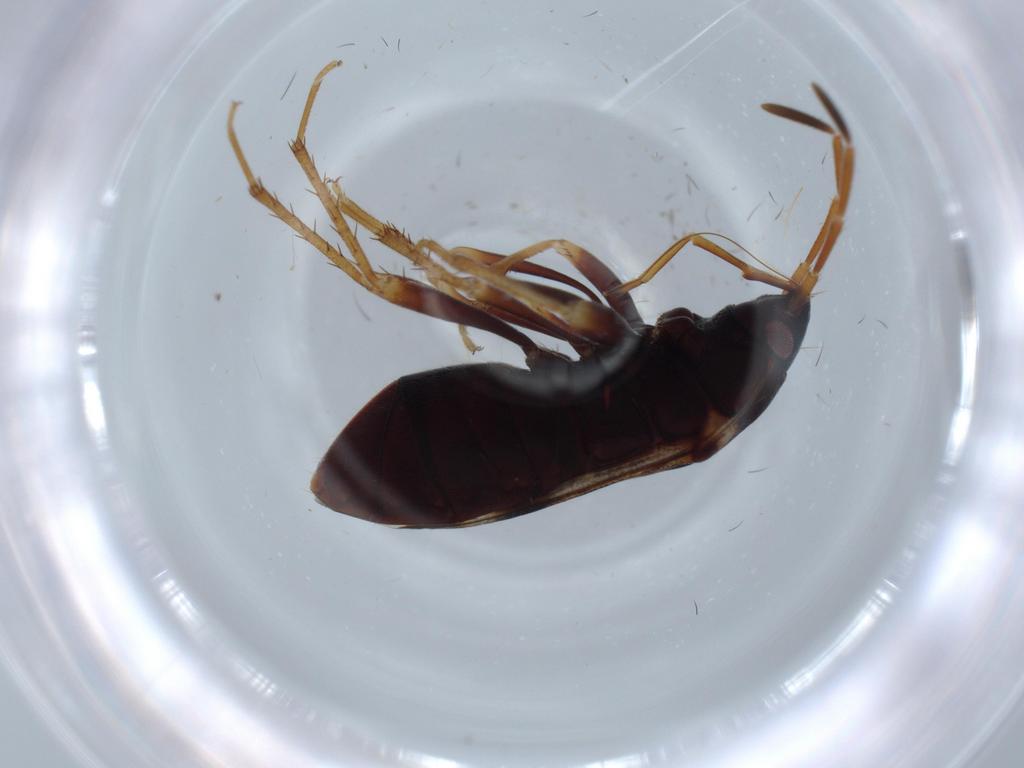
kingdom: Animalia
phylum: Arthropoda
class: Insecta
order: Hemiptera
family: Rhyparochromidae
